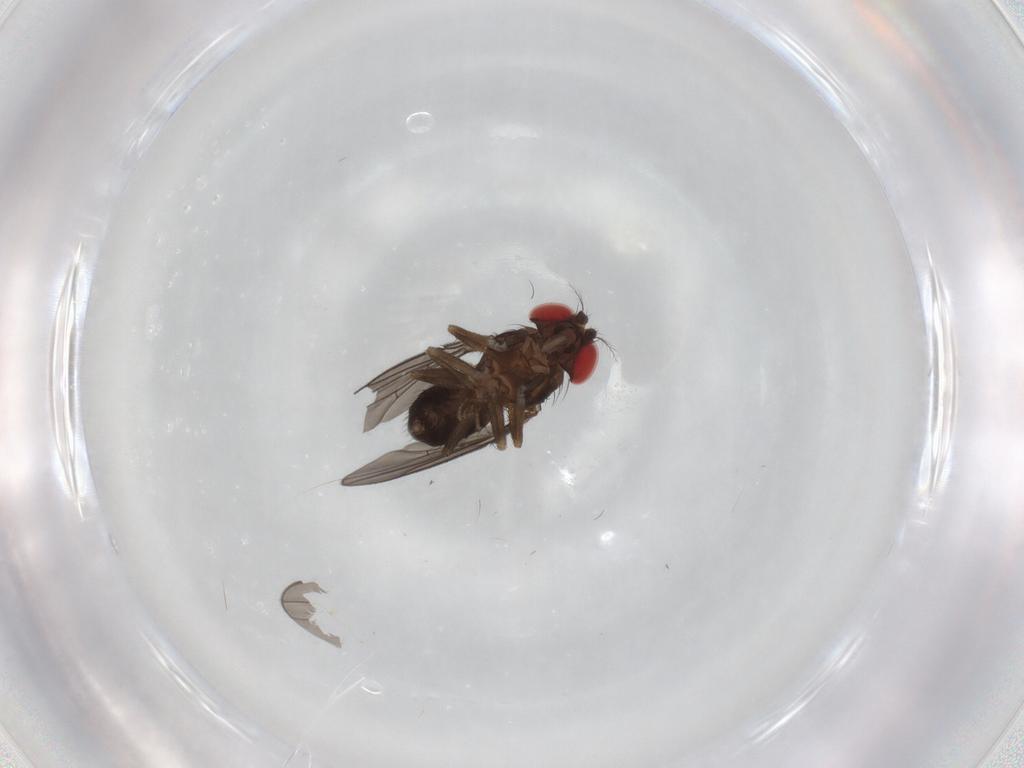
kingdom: Animalia
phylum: Arthropoda
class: Insecta
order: Diptera
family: Drosophilidae
